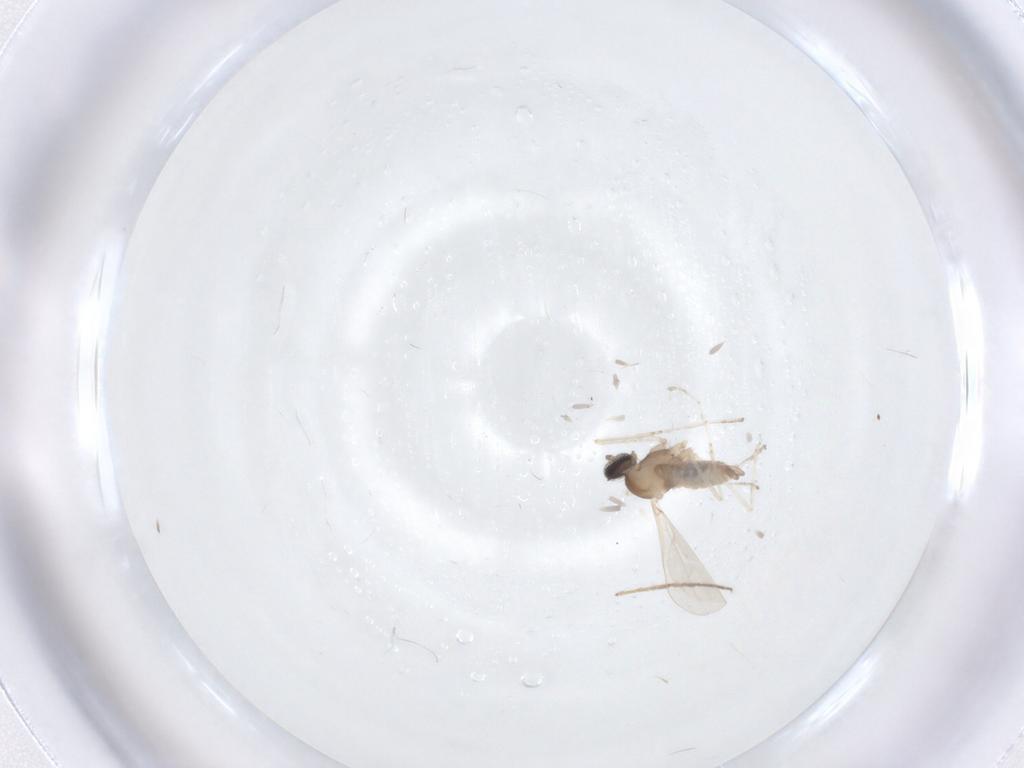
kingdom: Animalia
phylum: Arthropoda
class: Insecta
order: Diptera
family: Cecidomyiidae
